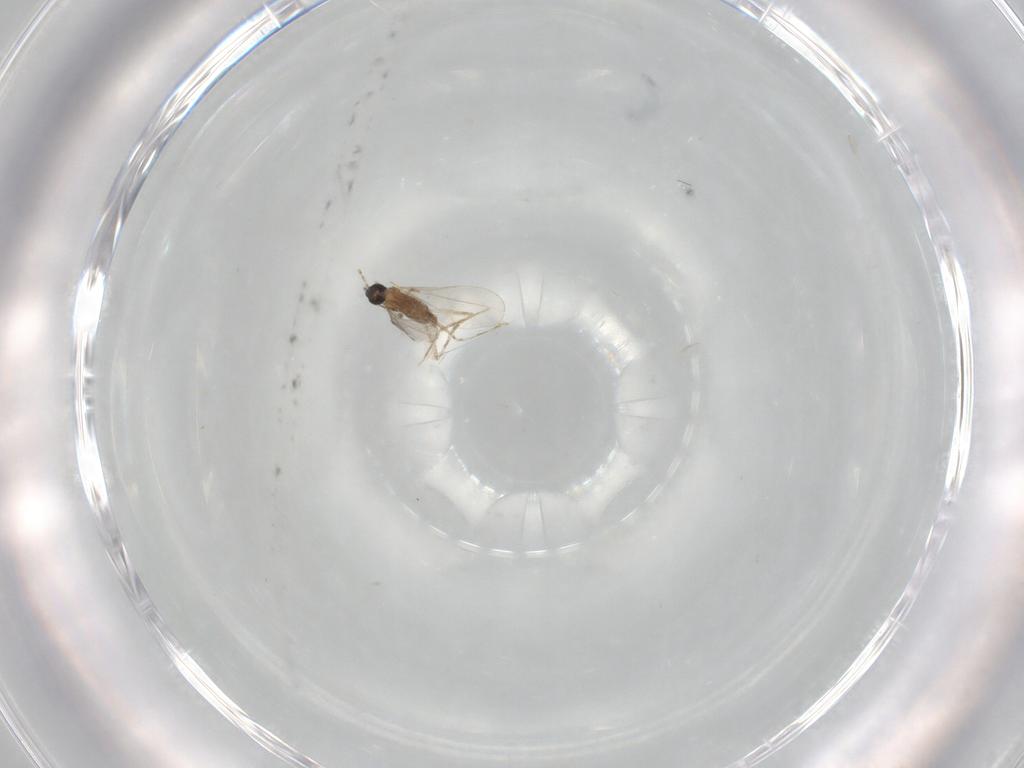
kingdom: Animalia
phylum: Arthropoda
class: Insecta
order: Diptera
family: Cecidomyiidae
